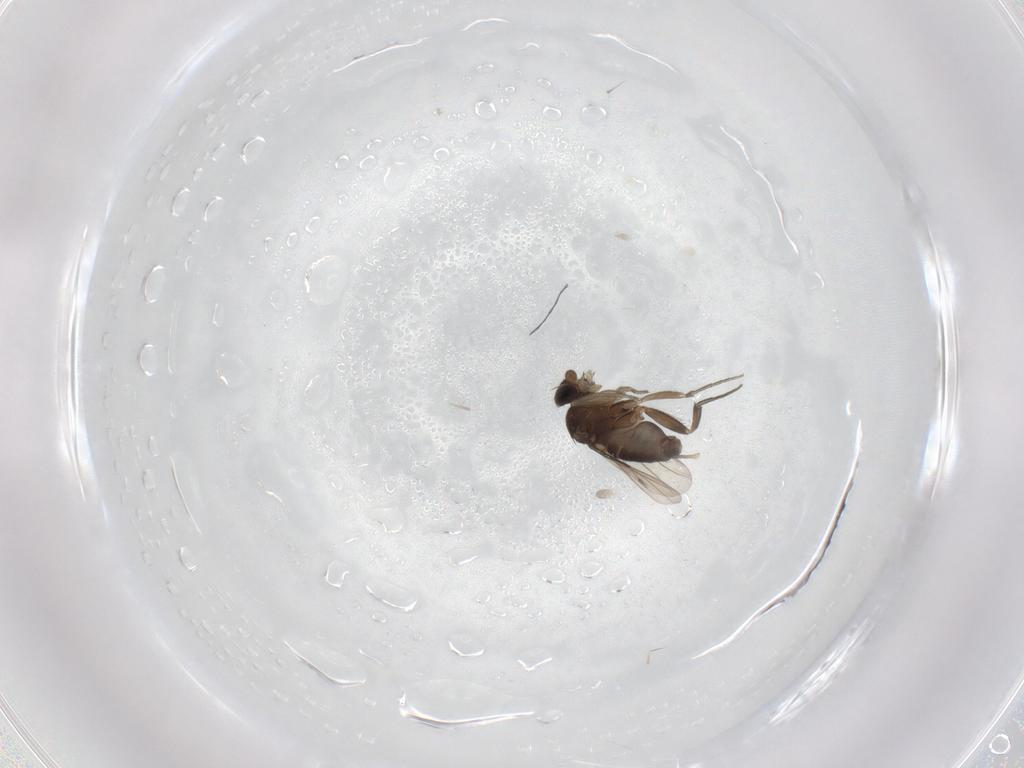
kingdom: Animalia
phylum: Arthropoda
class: Insecta
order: Diptera
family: Phoridae
